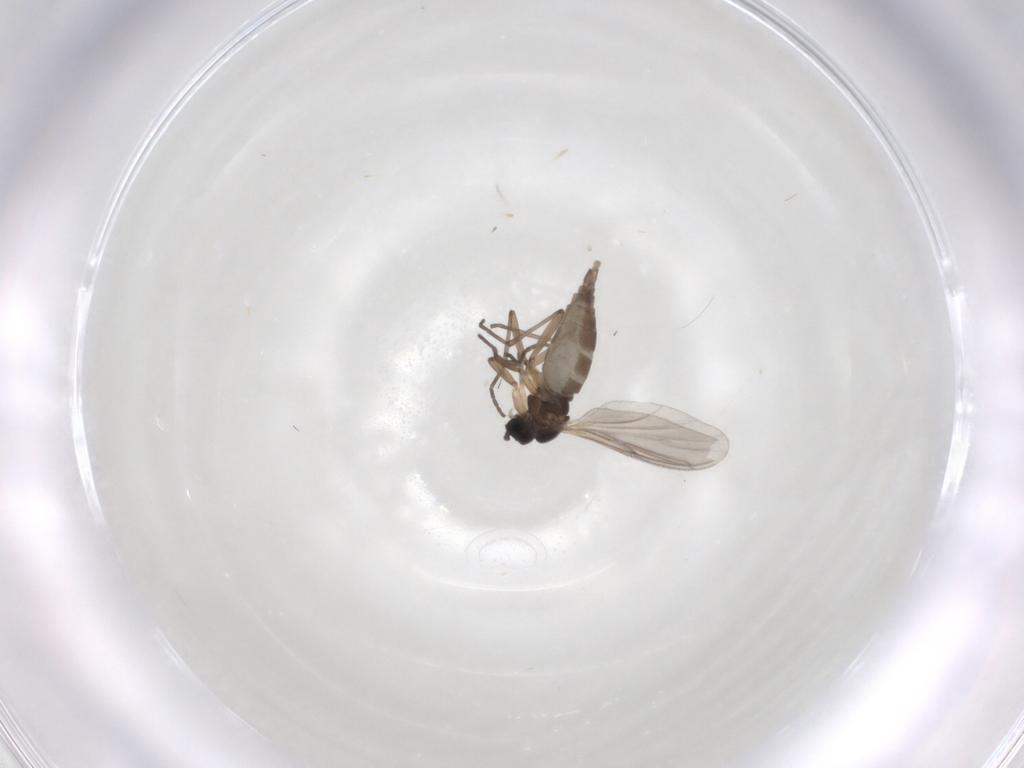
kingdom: Animalia
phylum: Arthropoda
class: Insecta
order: Diptera
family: Sciaridae
